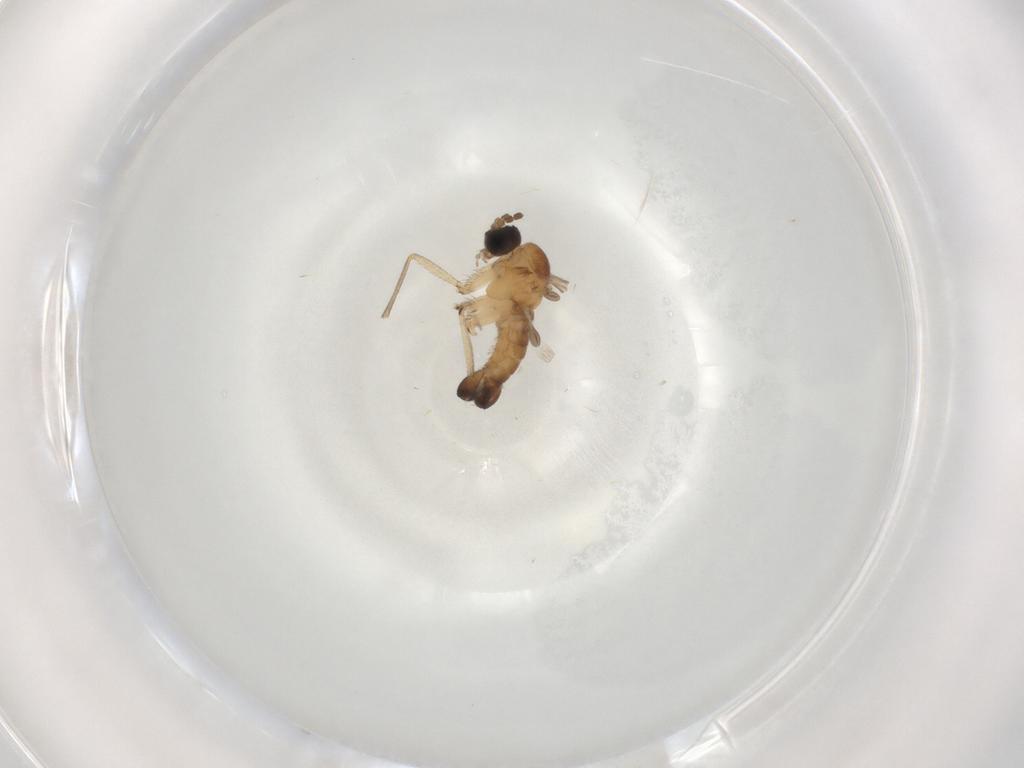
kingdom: Animalia
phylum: Arthropoda
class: Insecta
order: Diptera
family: Sciaridae
